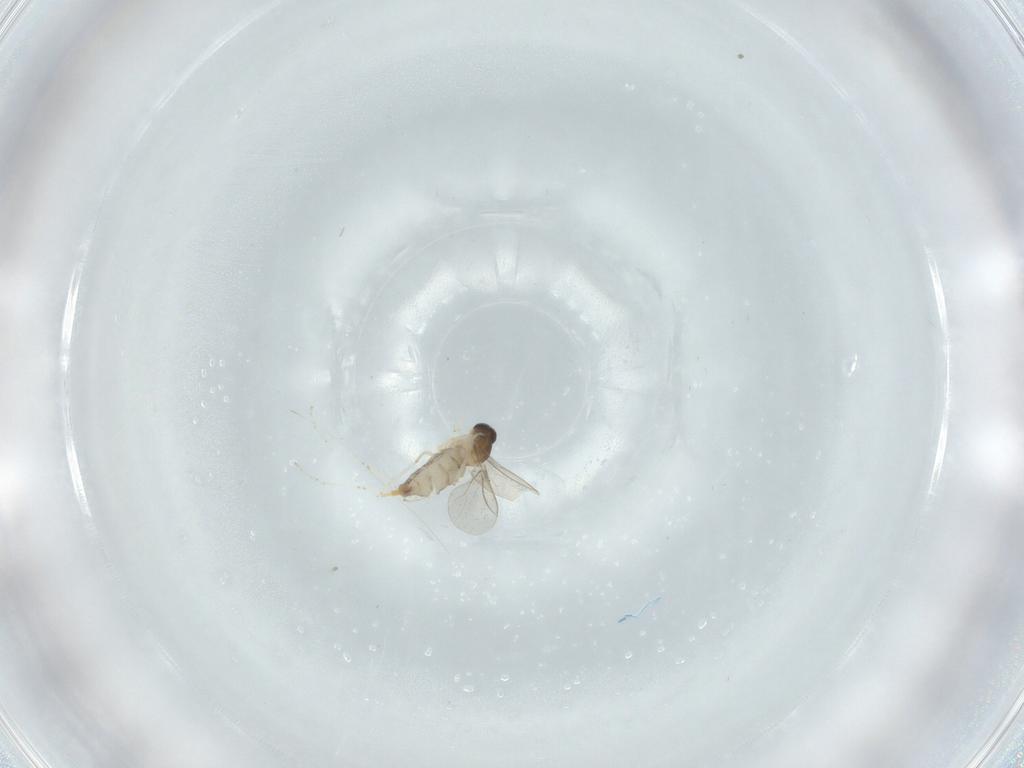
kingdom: Animalia
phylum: Arthropoda
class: Insecta
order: Diptera
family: Cecidomyiidae
